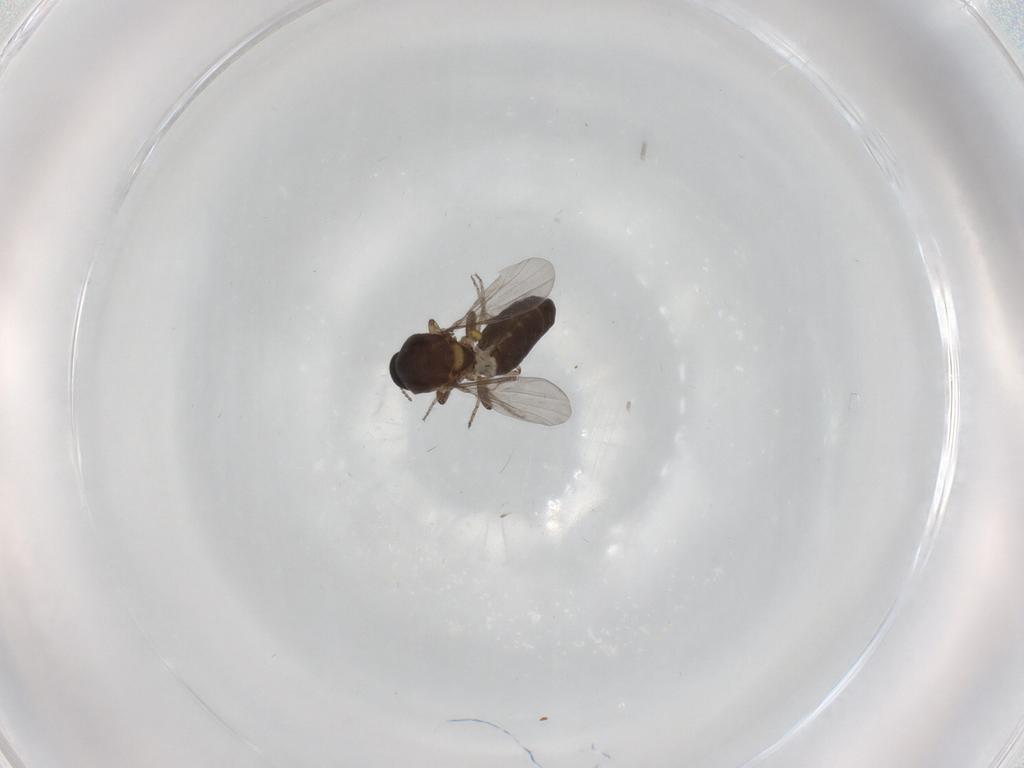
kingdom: Animalia
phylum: Arthropoda
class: Insecta
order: Diptera
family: Ceratopogonidae
